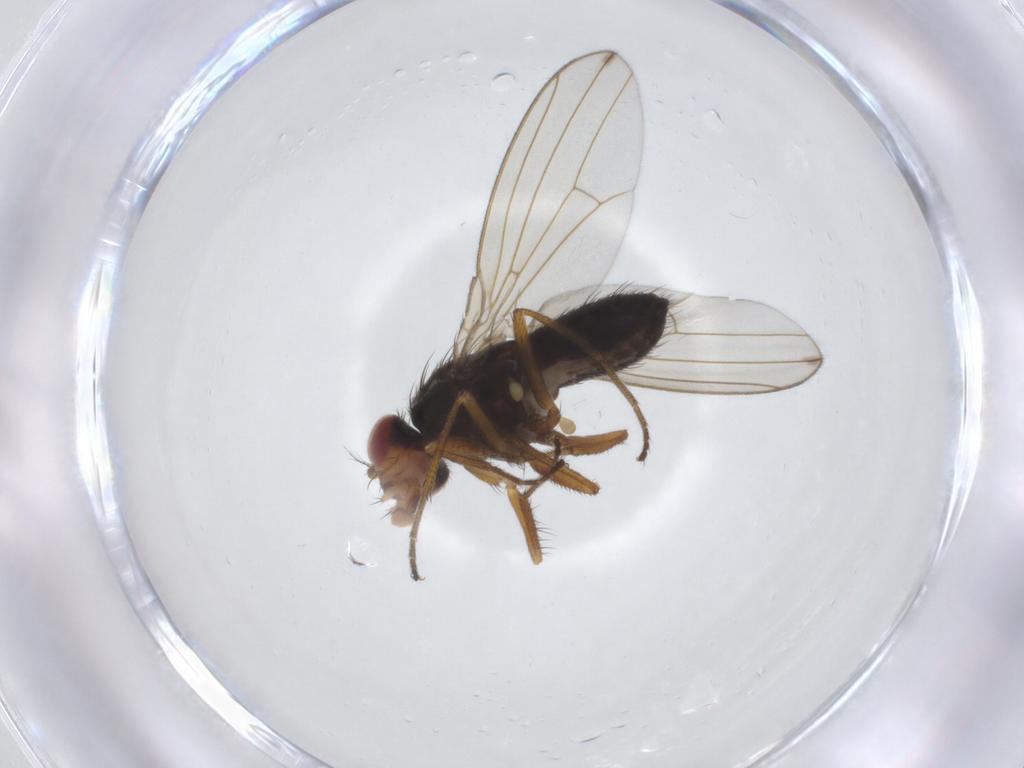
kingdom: Animalia
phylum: Arthropoda
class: Insecta
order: Diptera
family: Drosophilidae
